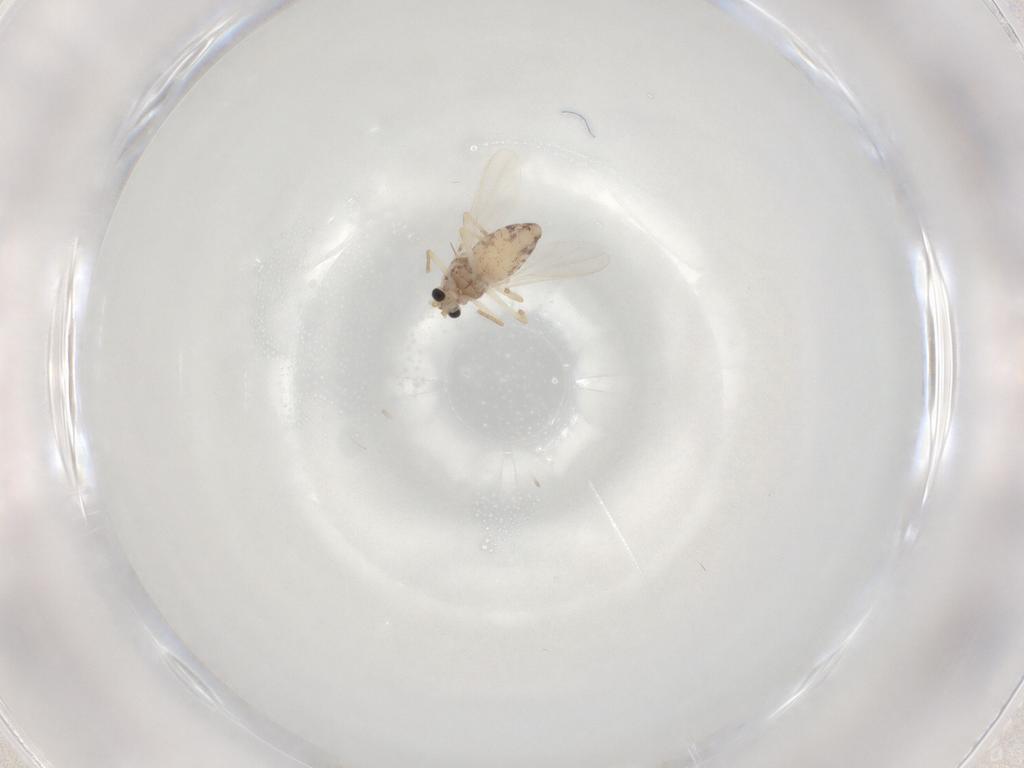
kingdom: Animalia
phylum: Arthropoda
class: Insecta
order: Diptera
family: Chironomidae
